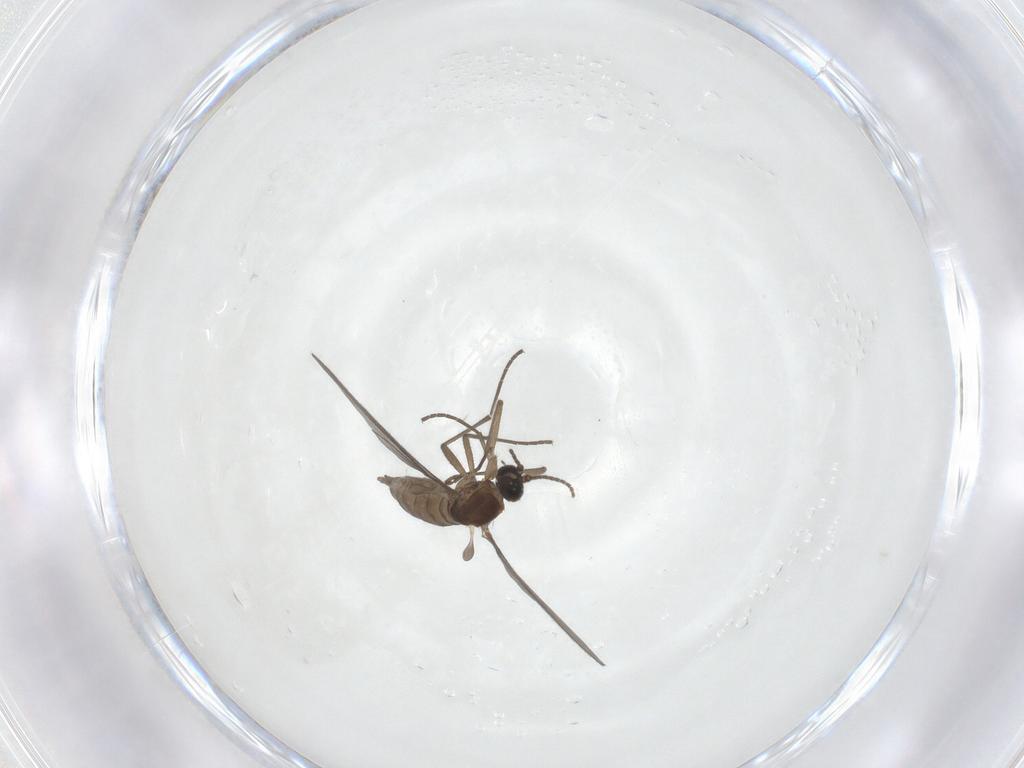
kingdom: Animalia
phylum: Arthropoda
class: Insecta
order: Diptera
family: Sciaridae
